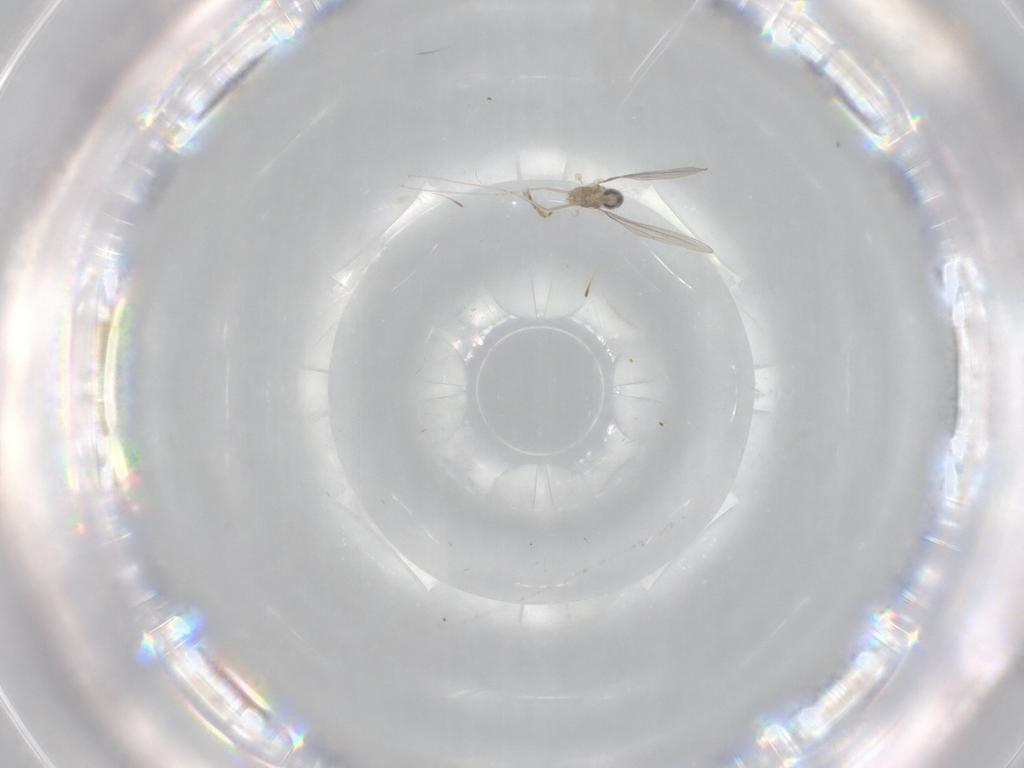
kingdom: Animalia
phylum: Arthropoda
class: Insecta
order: Diptera
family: Cecidomyiidae
